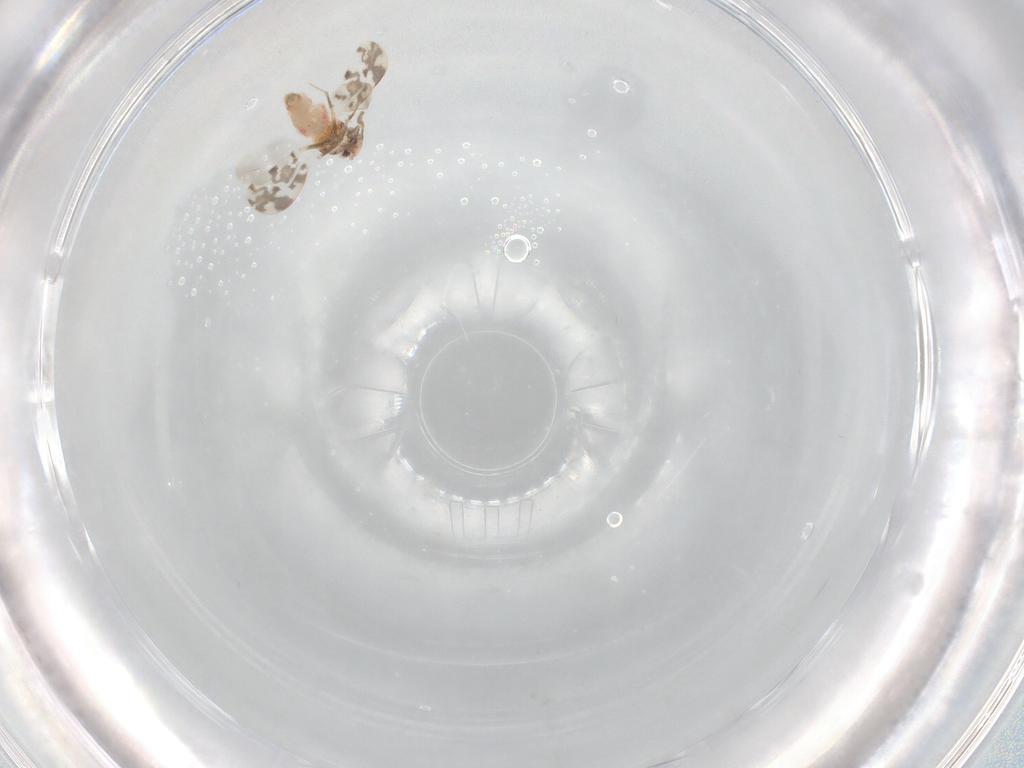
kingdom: Animalia
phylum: Arthropoda
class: Insecta
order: Hemiptera
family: Aleyrodidae
